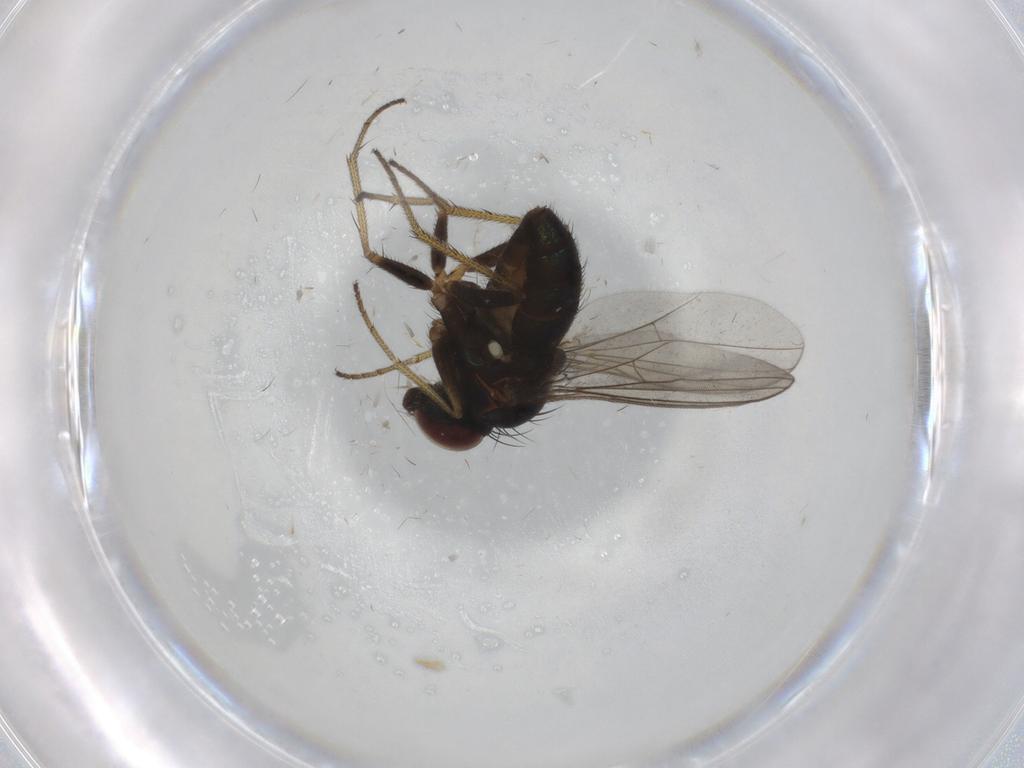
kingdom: Animalia
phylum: Arthropoda
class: Insecta
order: Diptera
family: Dolichopodidae
